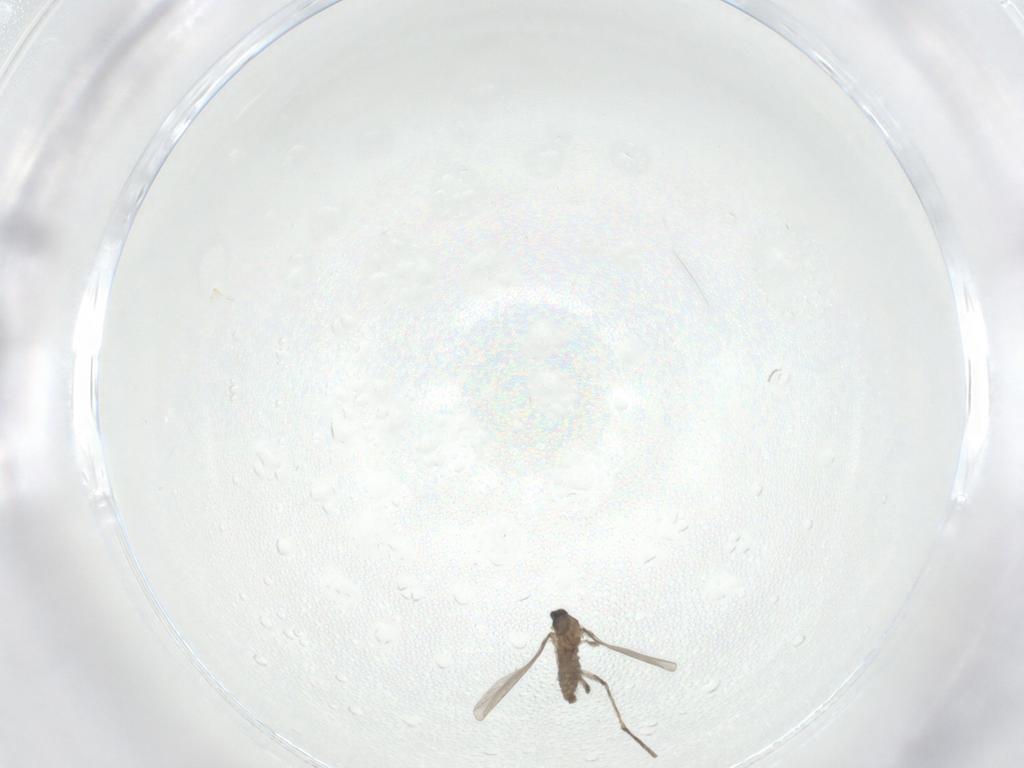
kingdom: Animalia
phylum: Arthropoda
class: Insecta
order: Diptera
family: Cecidomyiidae
